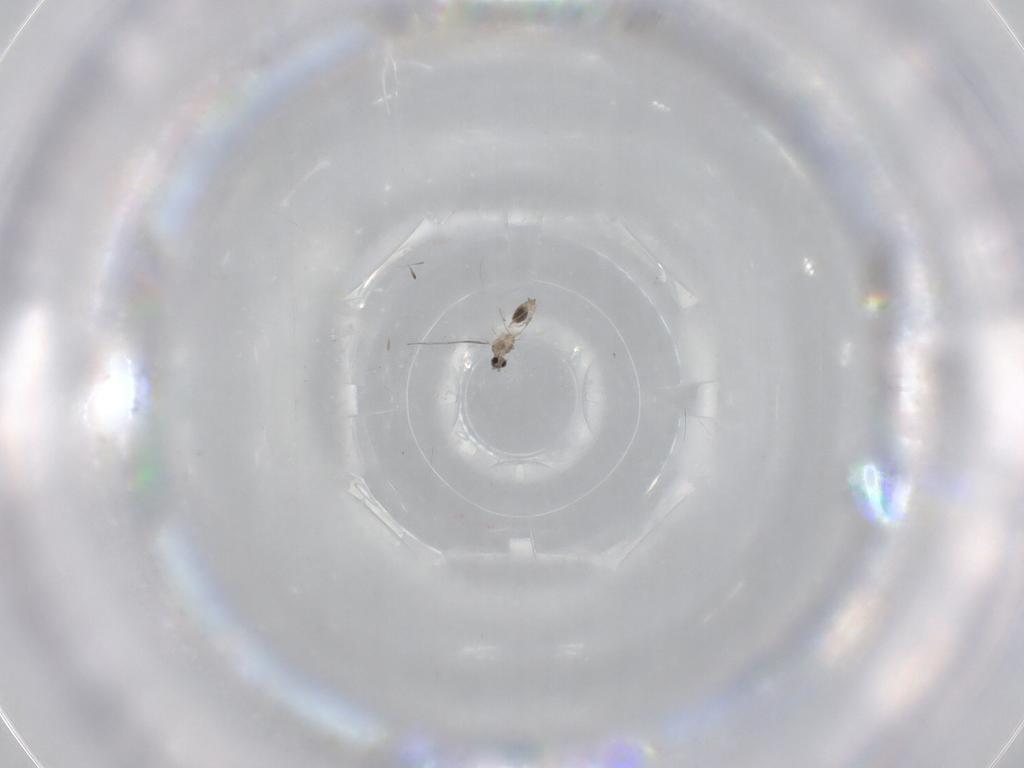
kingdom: Animalia
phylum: Arthropoda
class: Insecta
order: Diptera
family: Cecidomyiidae
